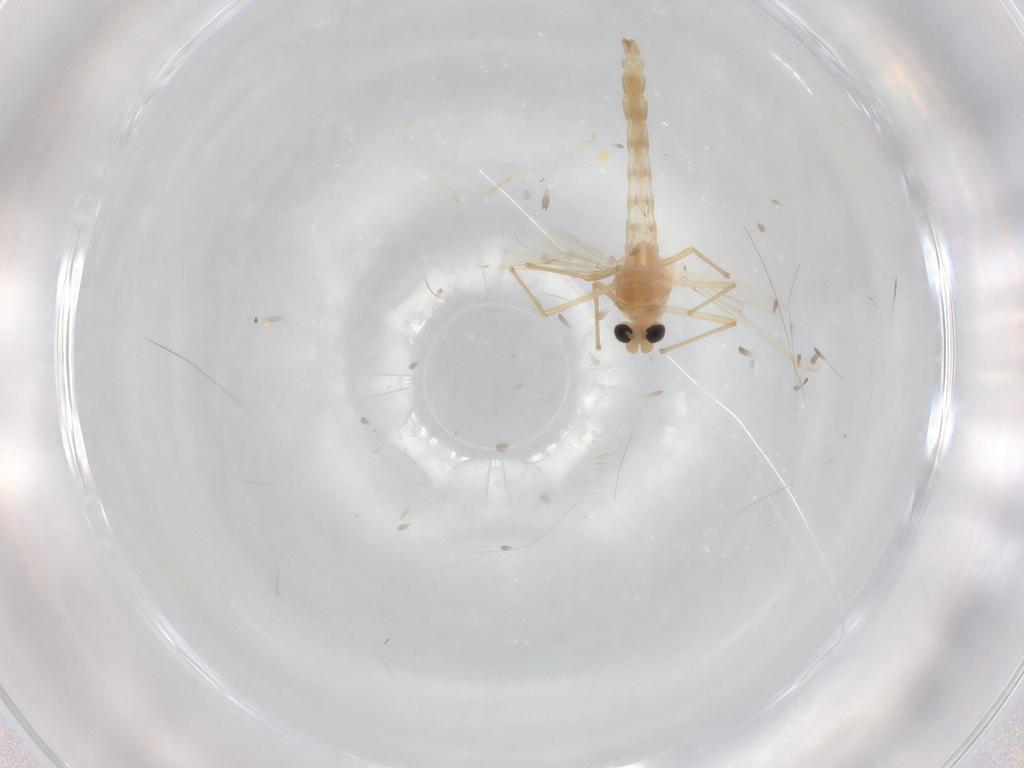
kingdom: Animalia
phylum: Arthropoda
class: Insecta
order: Diptera
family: Chironomidae
